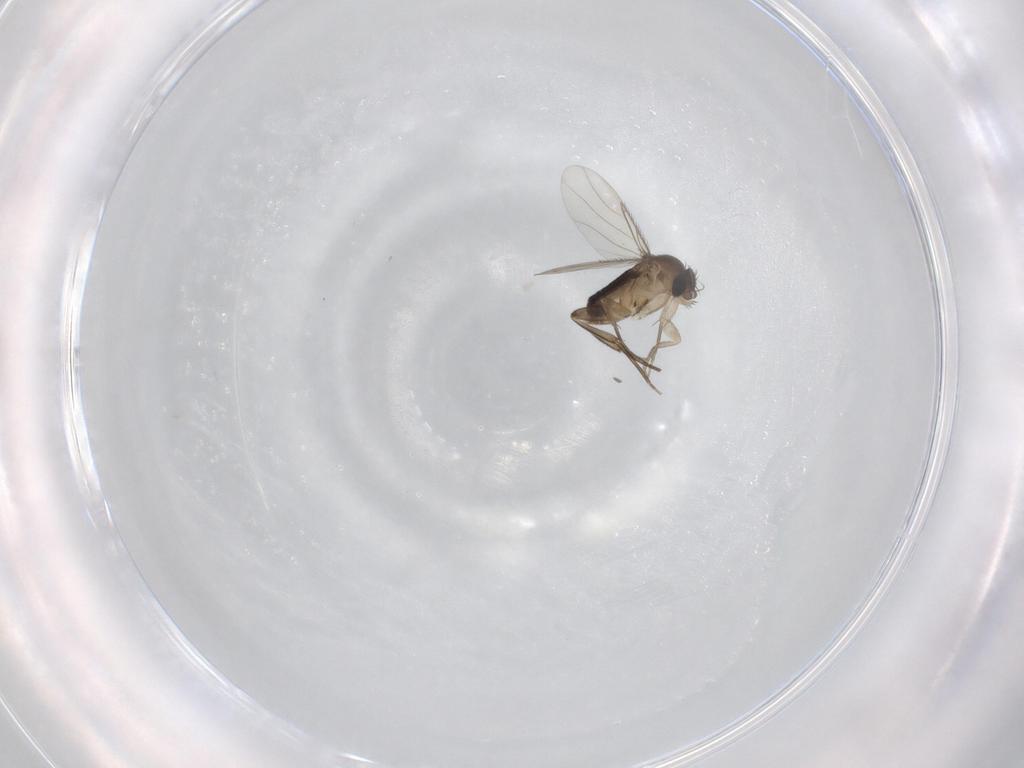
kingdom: Animalia
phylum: Arthropoda
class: Insecta
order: Diptera
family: Phoridae
